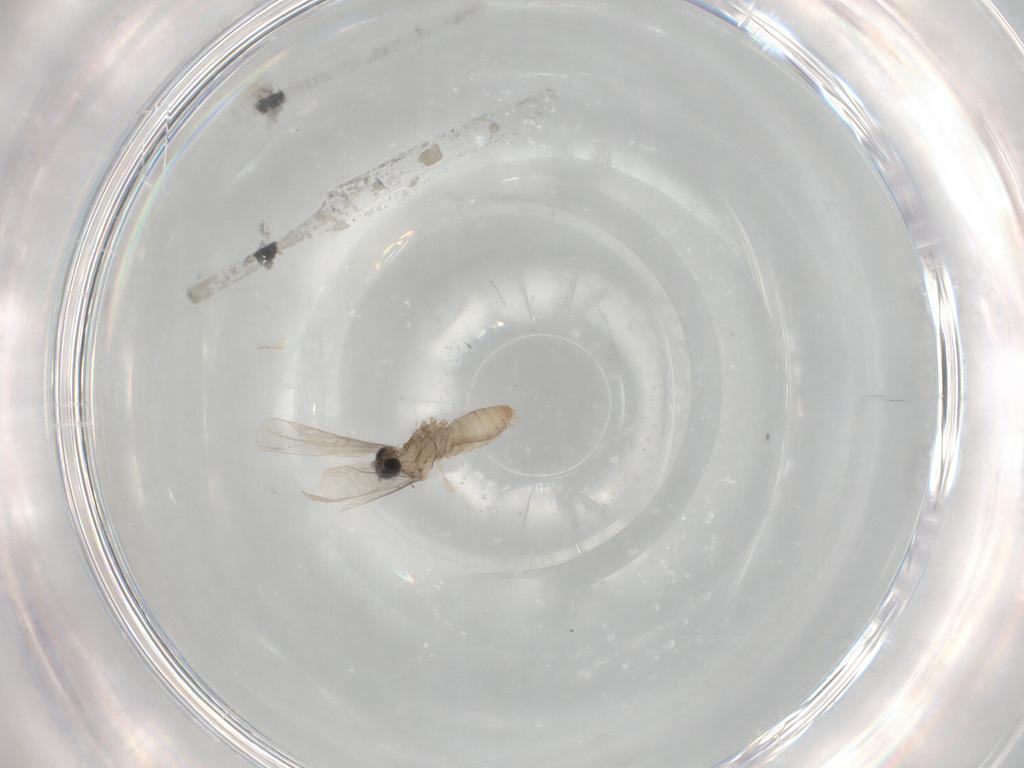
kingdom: Animalia
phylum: Arthropoda
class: Insecta
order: Diptera
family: Cecidomyiidae
